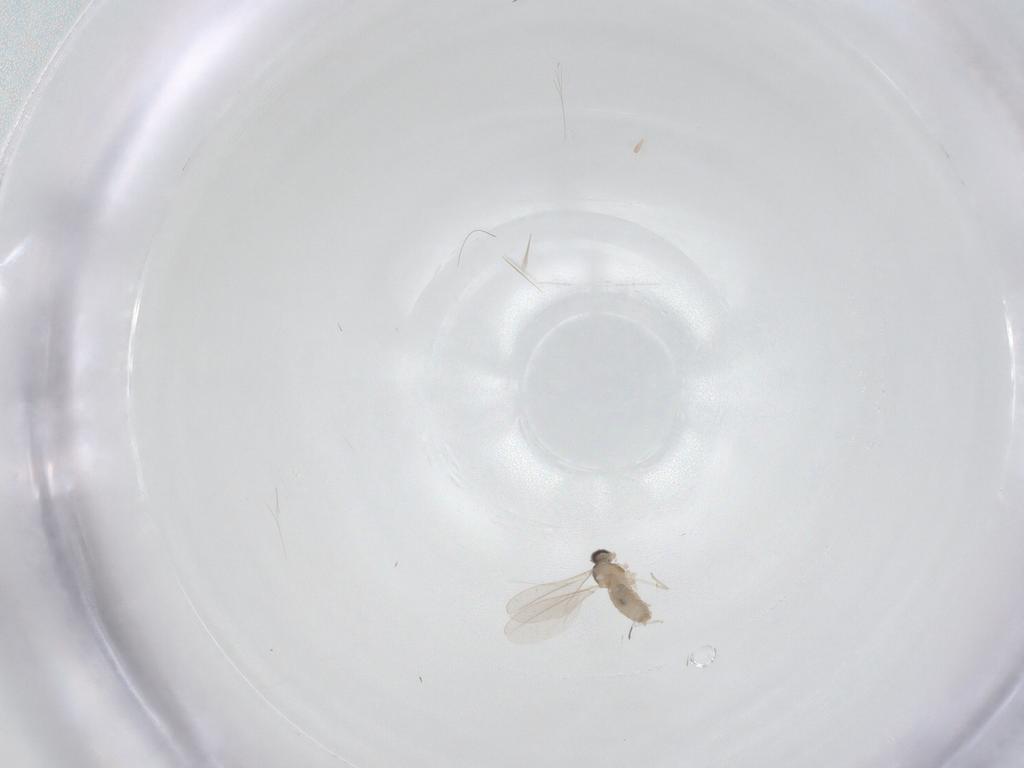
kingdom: Animalia
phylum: Arthropoda
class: Insecta
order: Diptera
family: Cecidomyiidae
